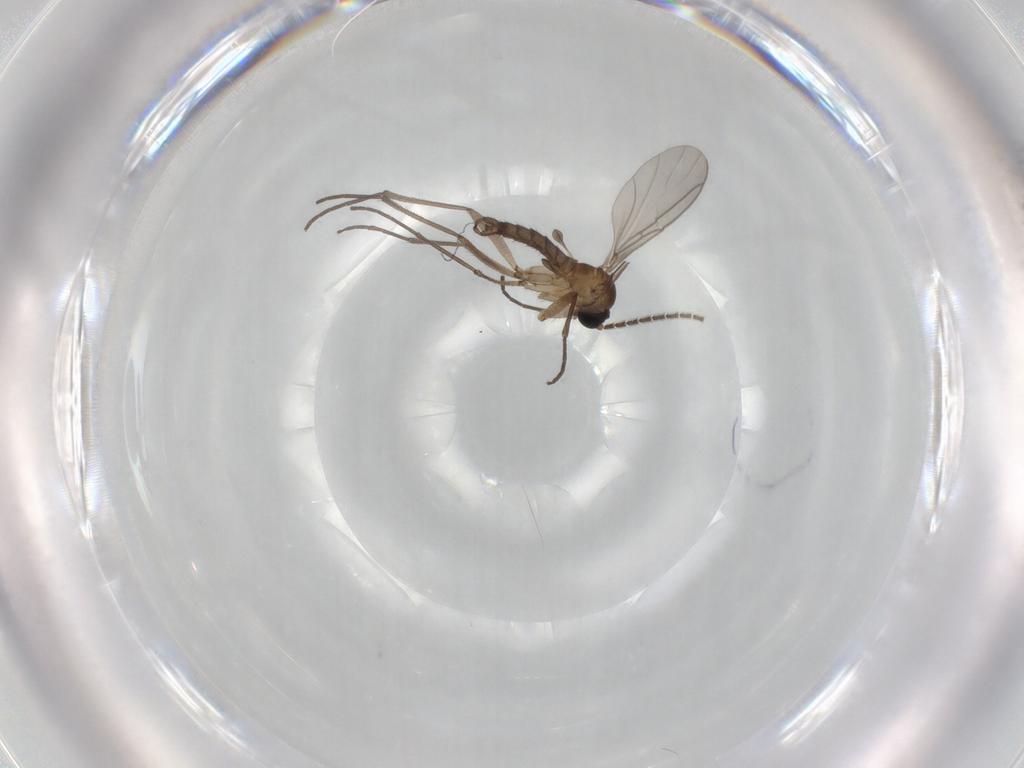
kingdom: Animalia
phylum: Arthropoda
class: Insecta
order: Diptera
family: Sciaridae
